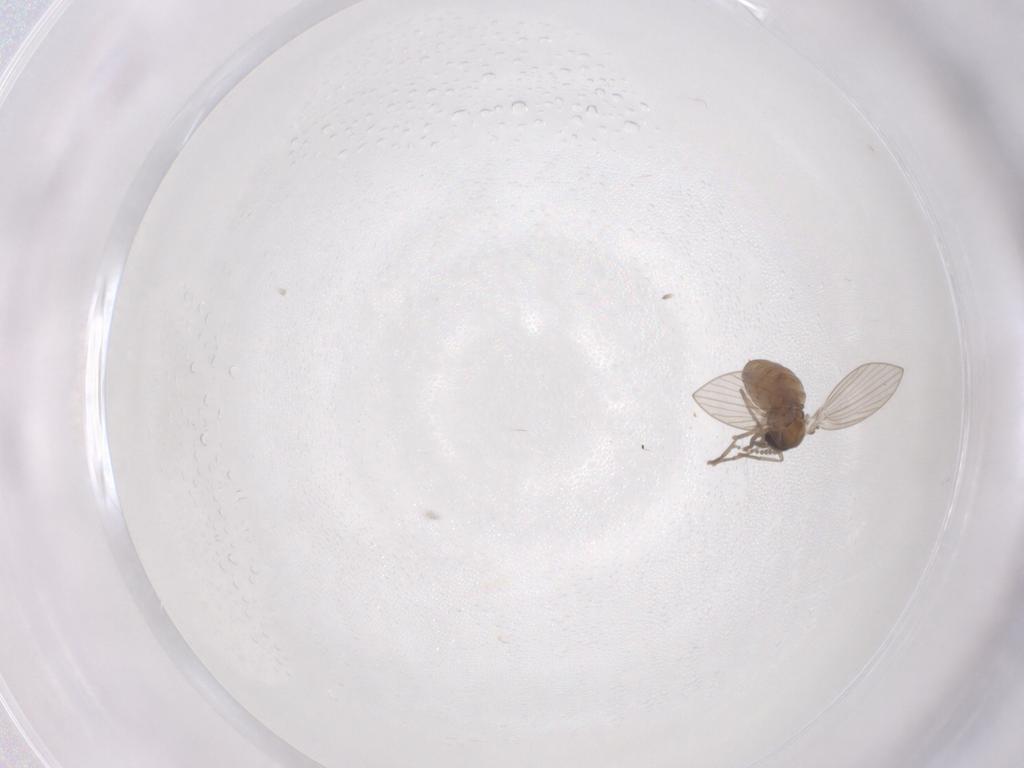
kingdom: Animalia
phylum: Arthropoda
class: Insecta
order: Diptera
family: Psychodidae
